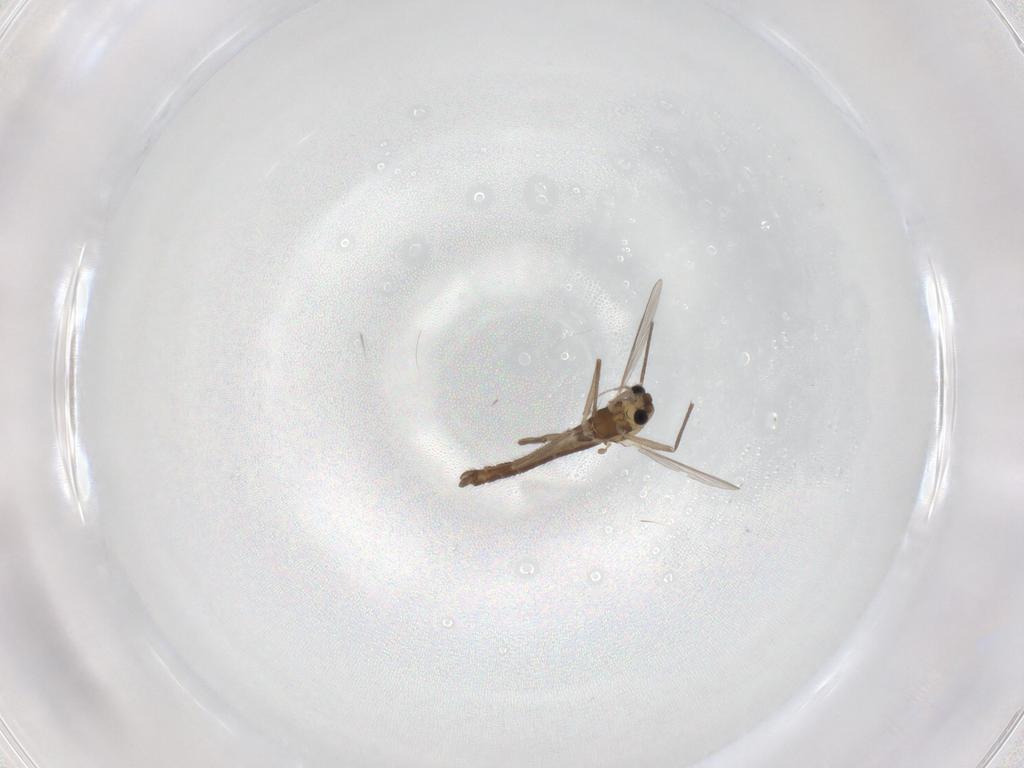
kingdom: Animalia
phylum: Arthropoda
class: Insecta
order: Diptera
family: Chironomidae
